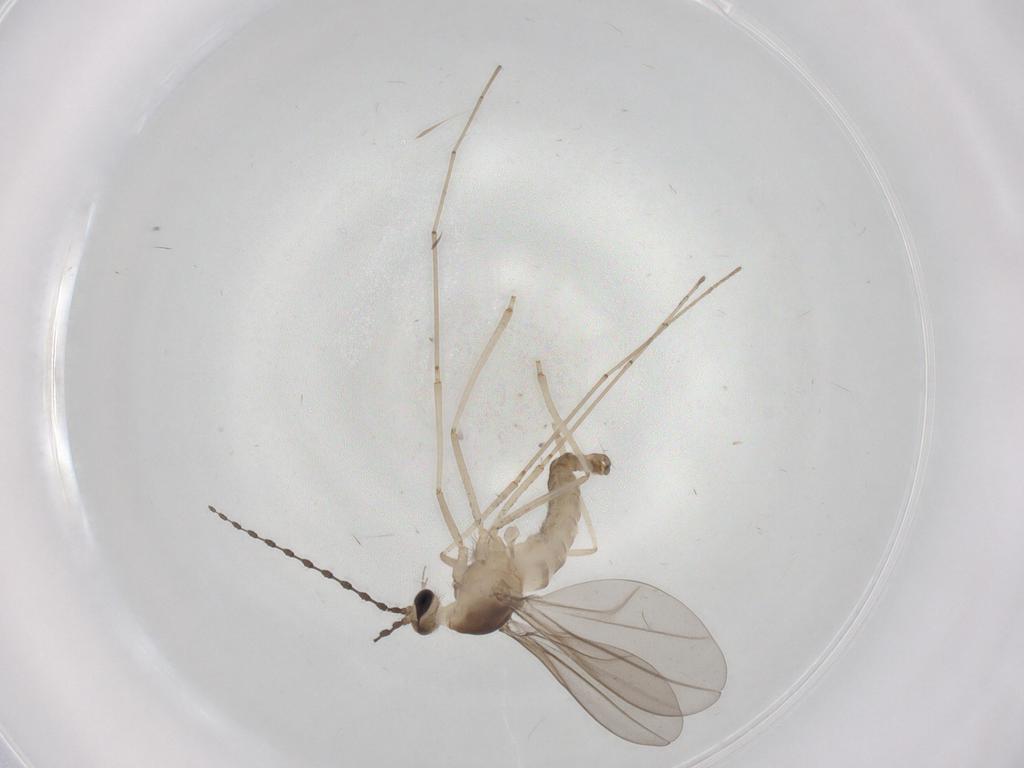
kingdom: Animalia
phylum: Arthropoda
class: Insecta
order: Diptera
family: Cecidomyiidae
